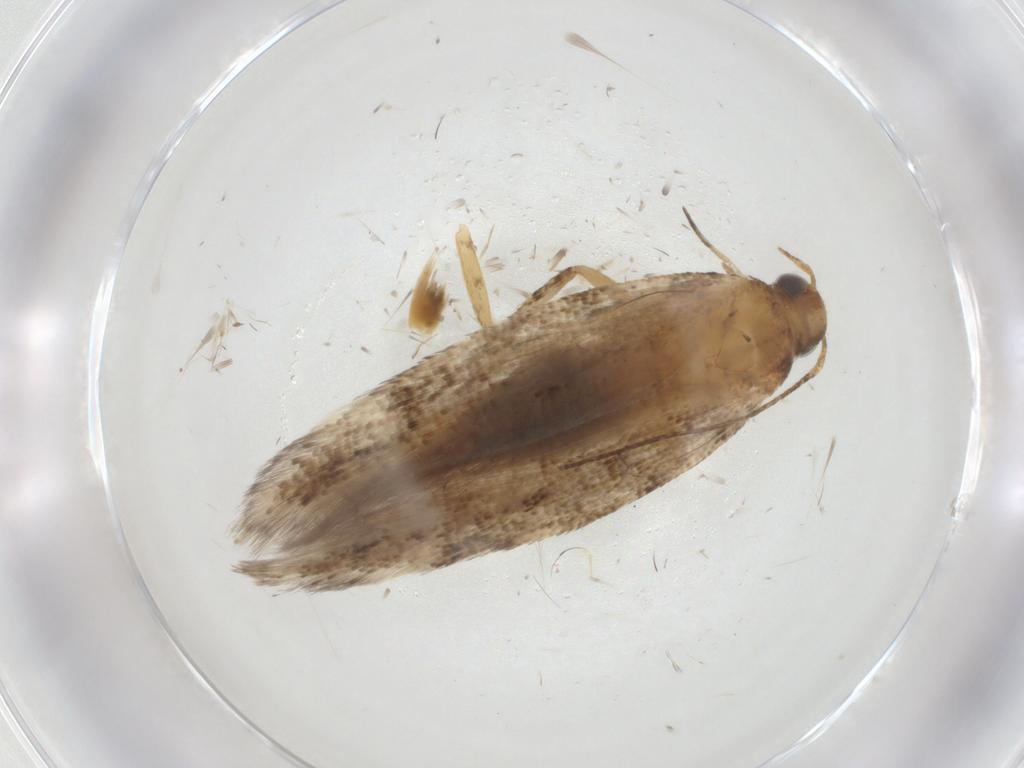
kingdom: Animalia
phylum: Arthropoda
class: Insecta
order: Lepidoptera
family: Gelechiidae
